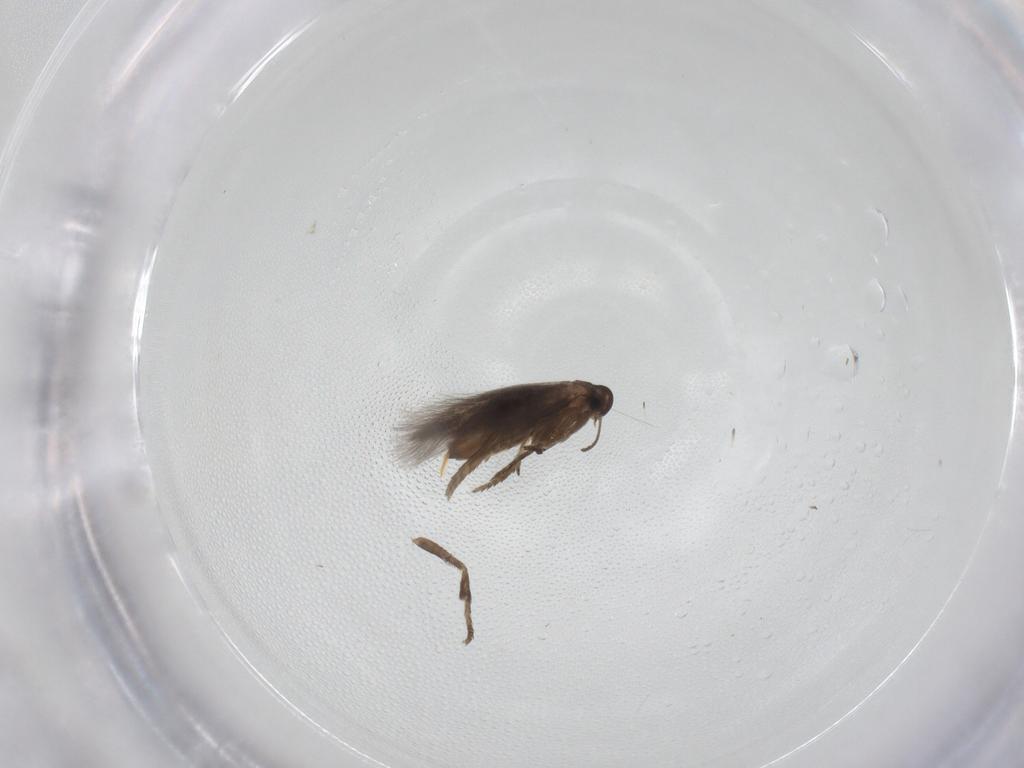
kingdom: Animalia
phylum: Arthropoda
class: Insecta
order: Lepidoptera
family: Elachistidae
